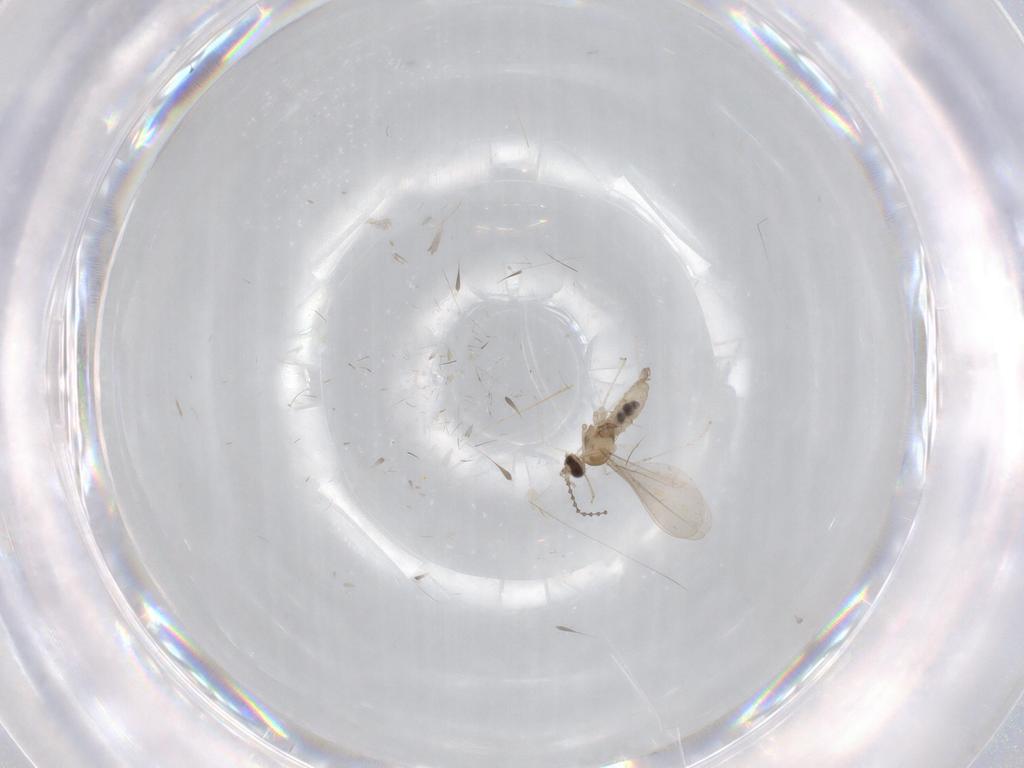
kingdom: Animalia
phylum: Arthropoda
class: Insecta
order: Diptera
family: Cecidomyiidae
